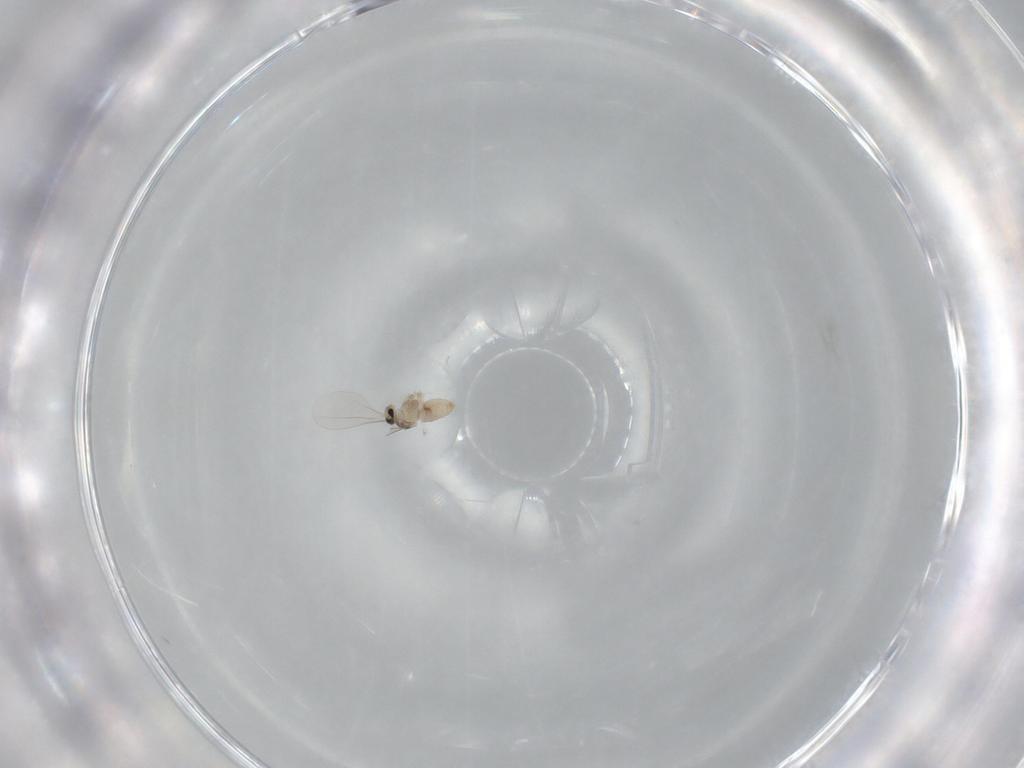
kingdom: Animalia
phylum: Arthropoda
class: Insecta
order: Diptera
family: Cecidomyiidae
